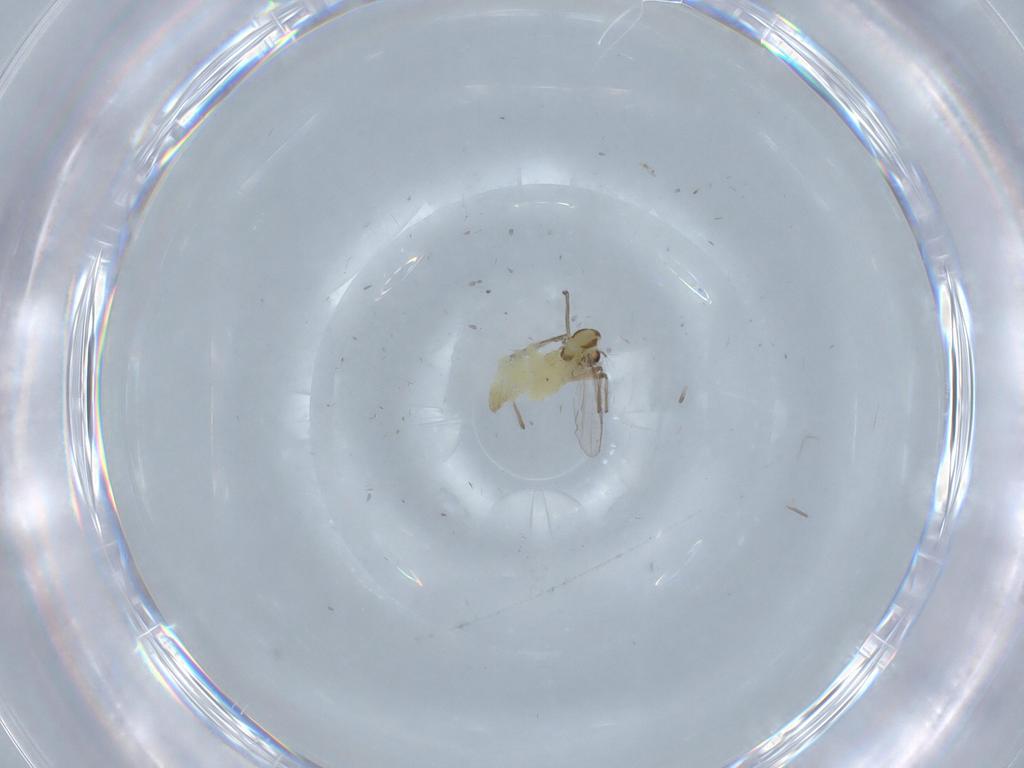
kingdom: Animalia
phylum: Arthropoda
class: Insecta
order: Diptera
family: Chironomidae
